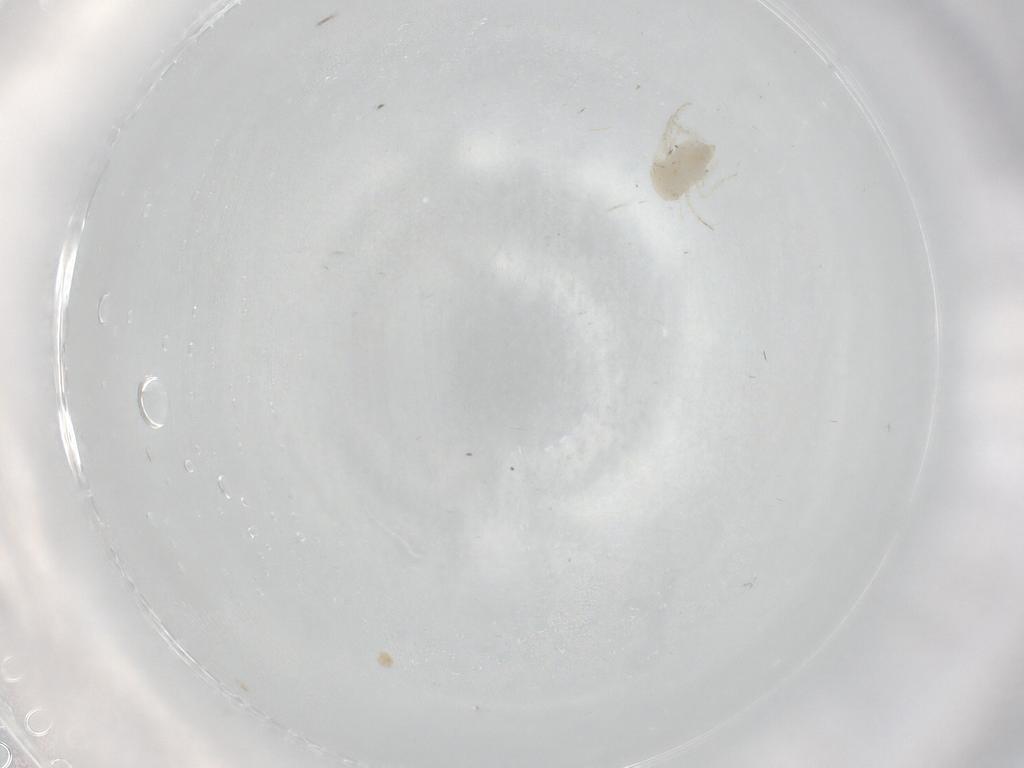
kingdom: Animalia
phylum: Arthropoda
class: Insecta
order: Hemiptera
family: Aleyrodidae
